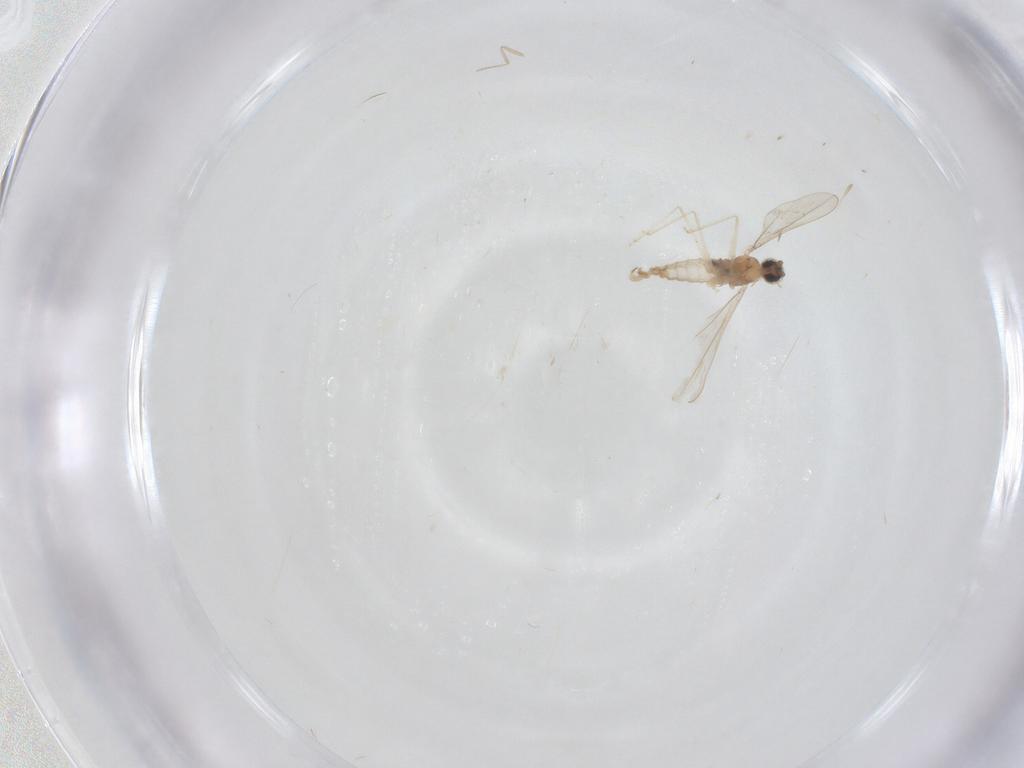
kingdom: Animalia
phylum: Arthropoda
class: Insecta
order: Diptera
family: Cecidomyiidae
